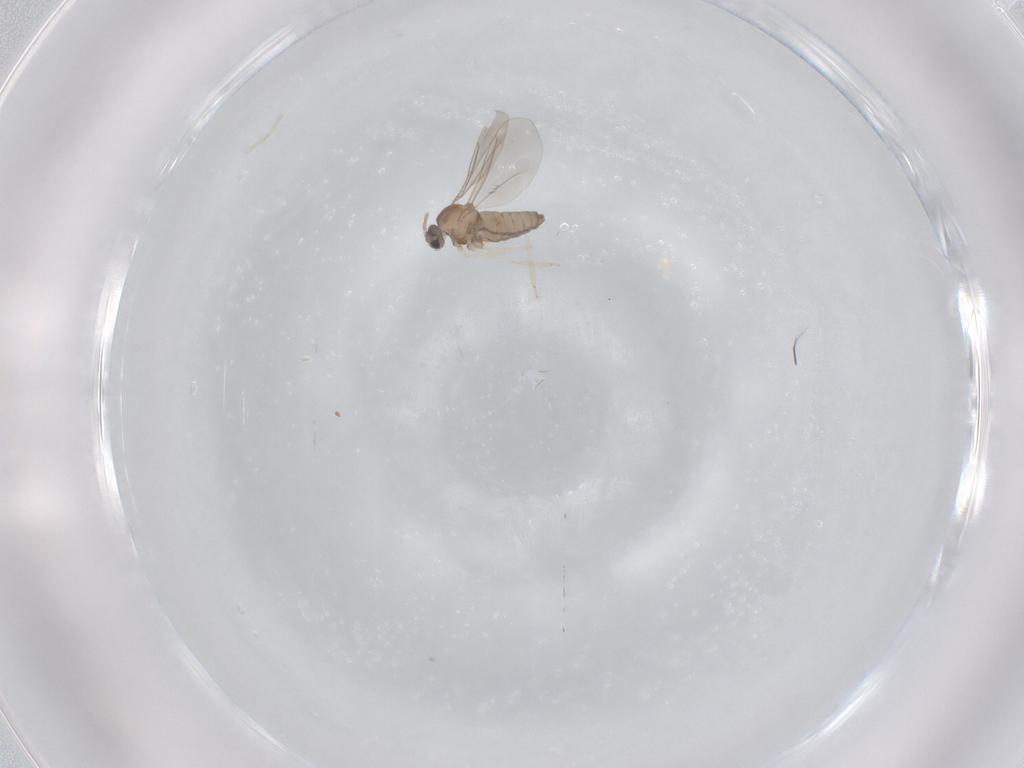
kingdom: Animalia
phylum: Arthropoda
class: Insecta
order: Diptera
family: Cecidomyiidae
